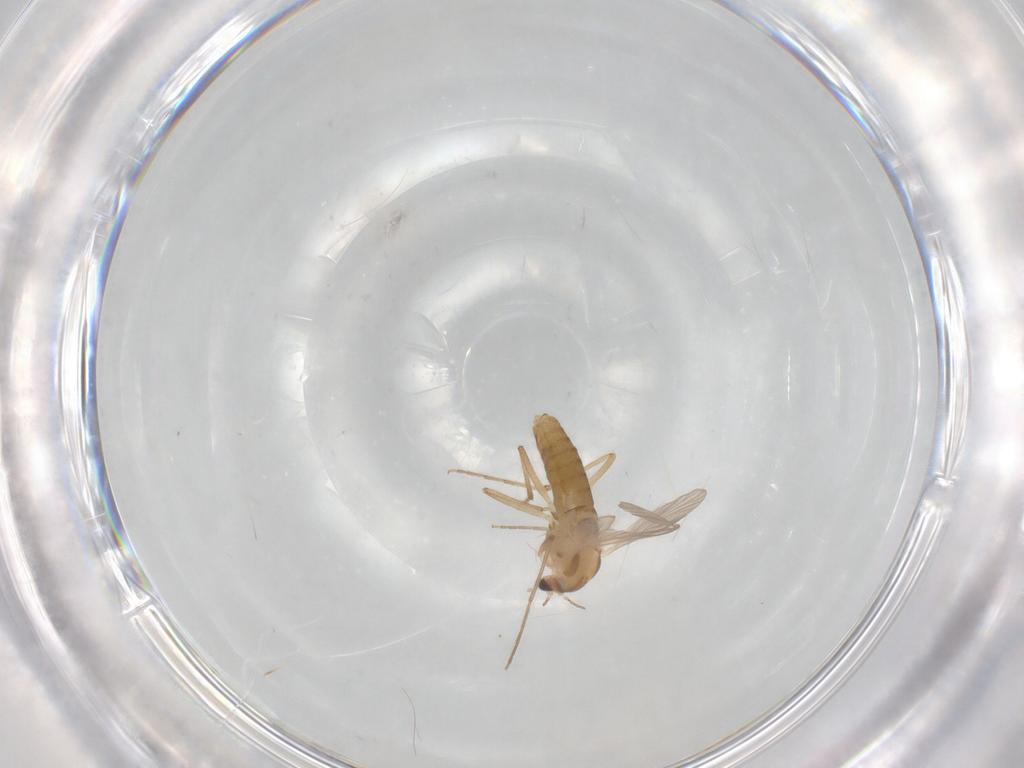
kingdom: Animalia
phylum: Arthropoda
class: Insecta
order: Diptera
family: Chironomidae
